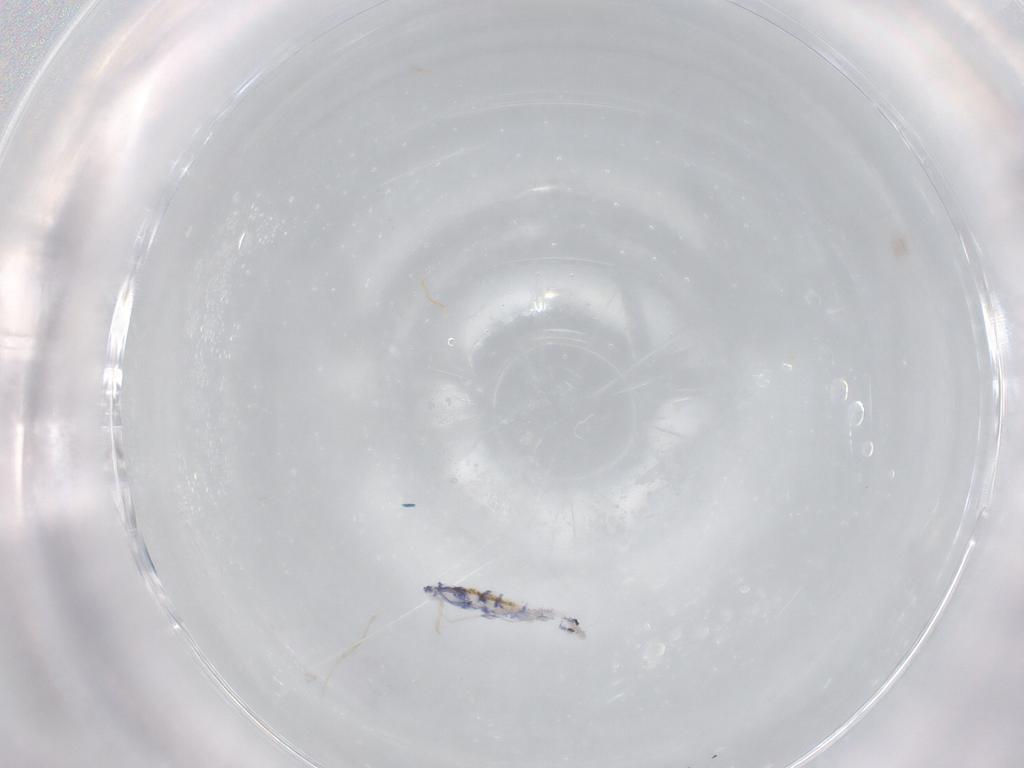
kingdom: Animalia
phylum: Arthropoda
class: Collembola
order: Entomobryomorpha
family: Entomobryidae
